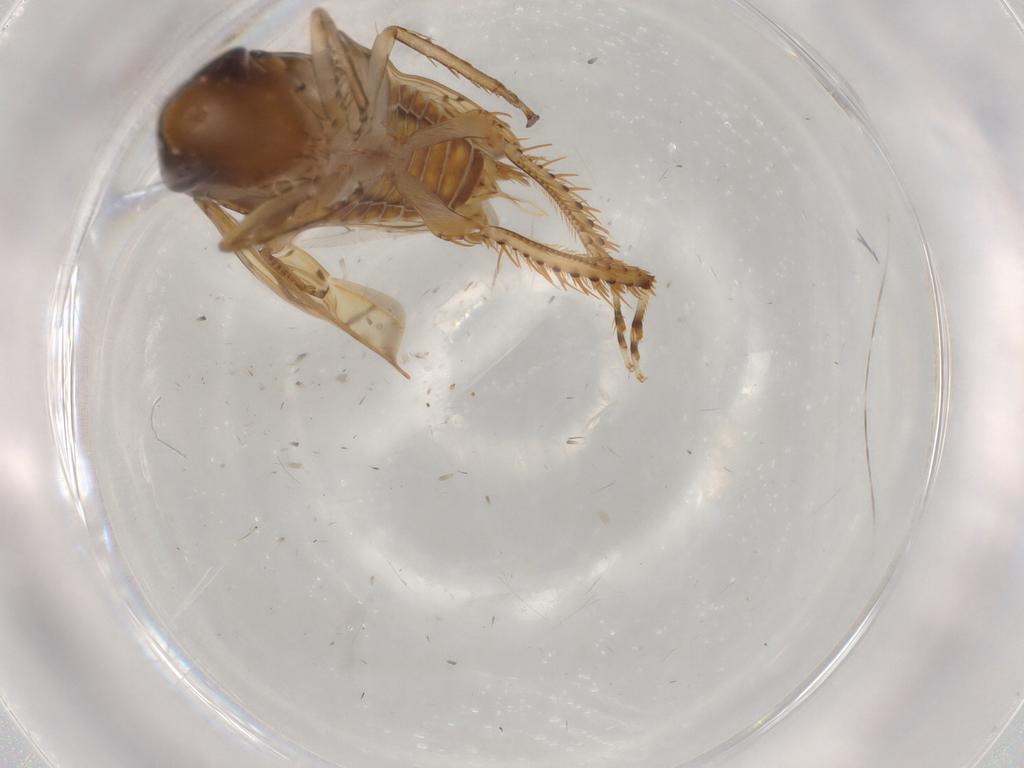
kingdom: Animalia
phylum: Arthropoda
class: Insecta
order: Hemiptera
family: Cicadellidae
